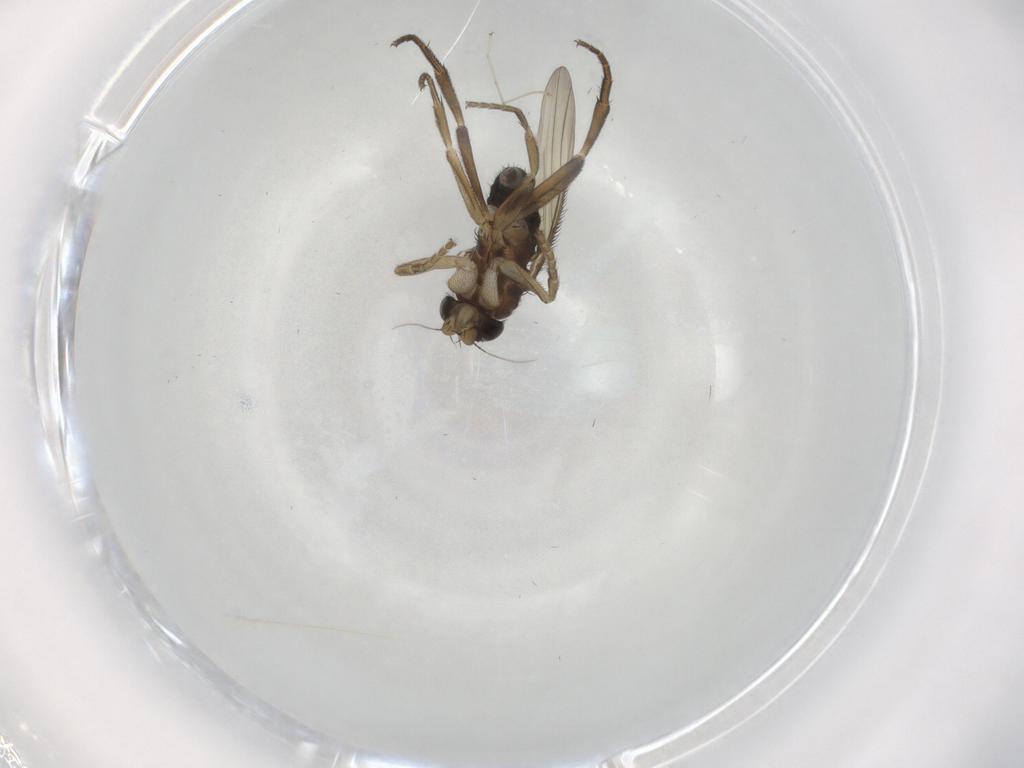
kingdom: Animalia
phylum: Arthropoda
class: Insecta
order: Diptera
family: Phoridae
